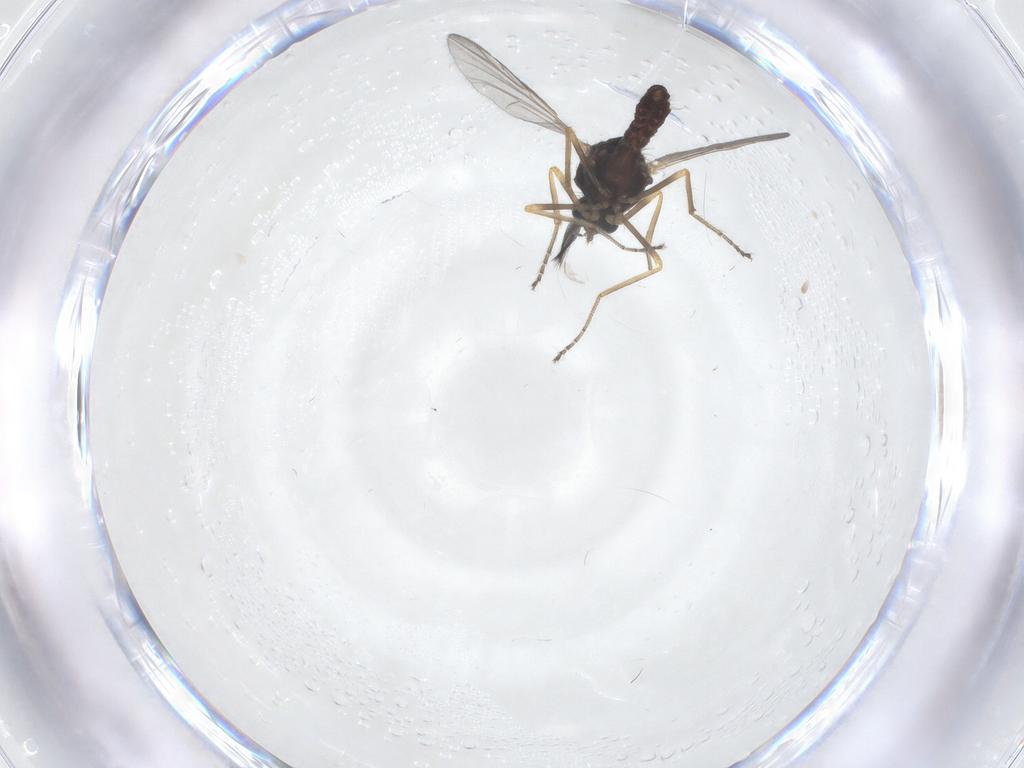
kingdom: Animalia
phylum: Arthropoda
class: Insecta
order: Diptera
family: Ceratopogonidae
